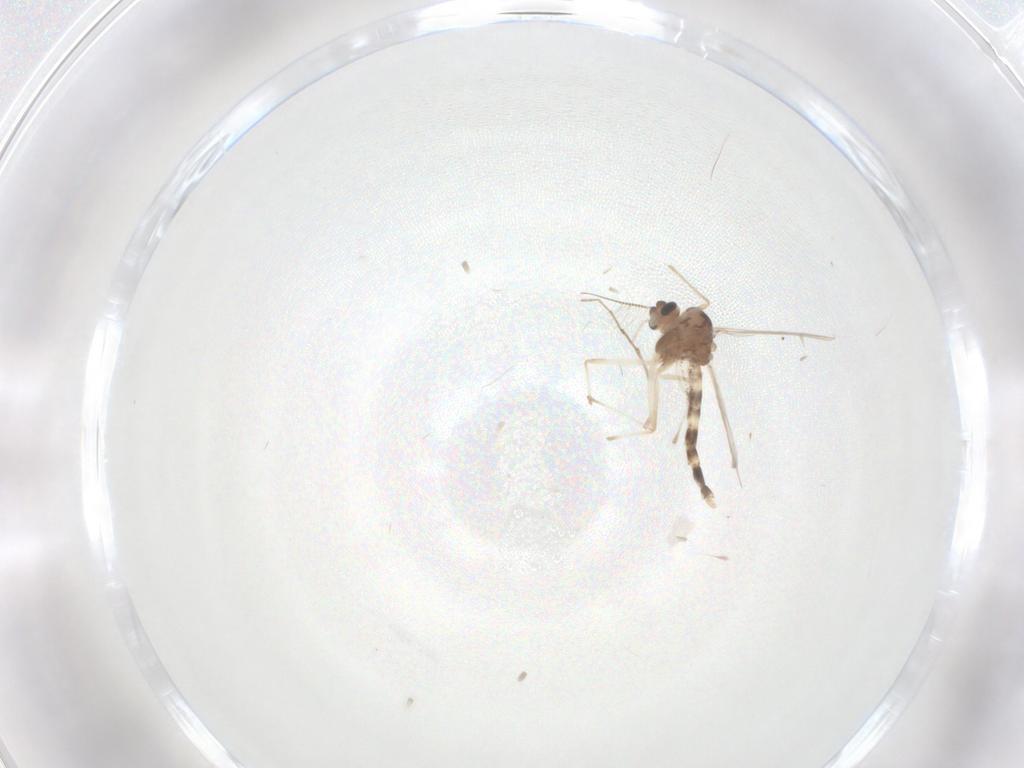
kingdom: Animalia
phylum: Arthropoda
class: Insecta
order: Diptera
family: Chironomidae
